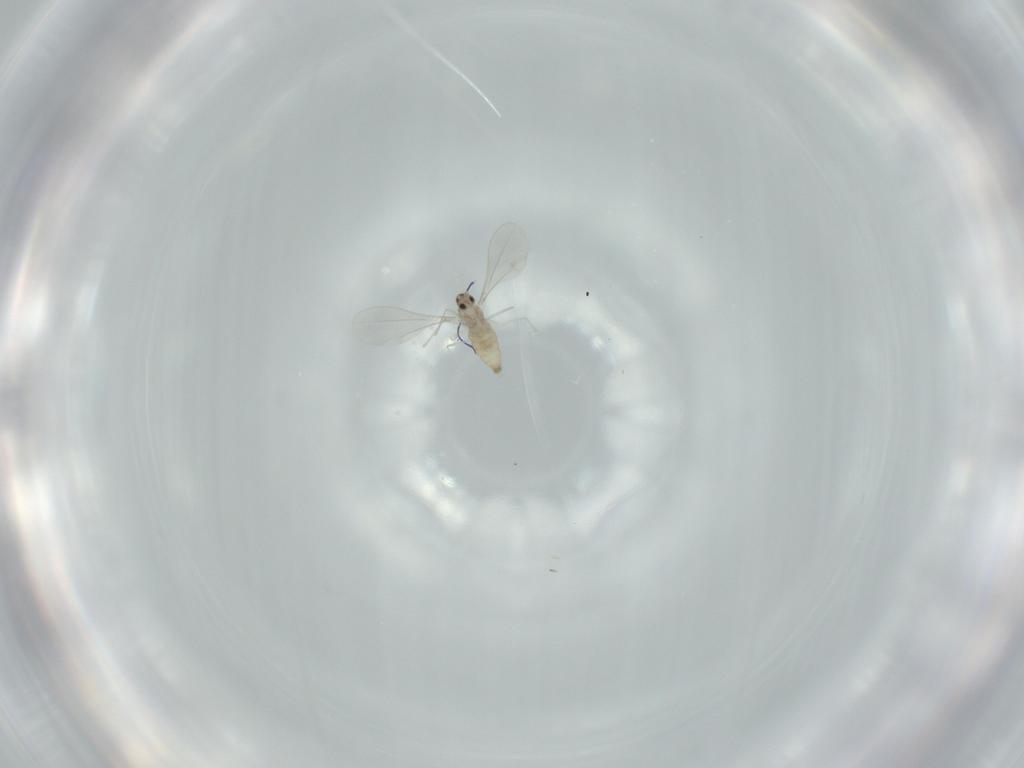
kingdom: Animalia
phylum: Arthropoda
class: Insecta
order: Diptera
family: Cecidomyiidae
